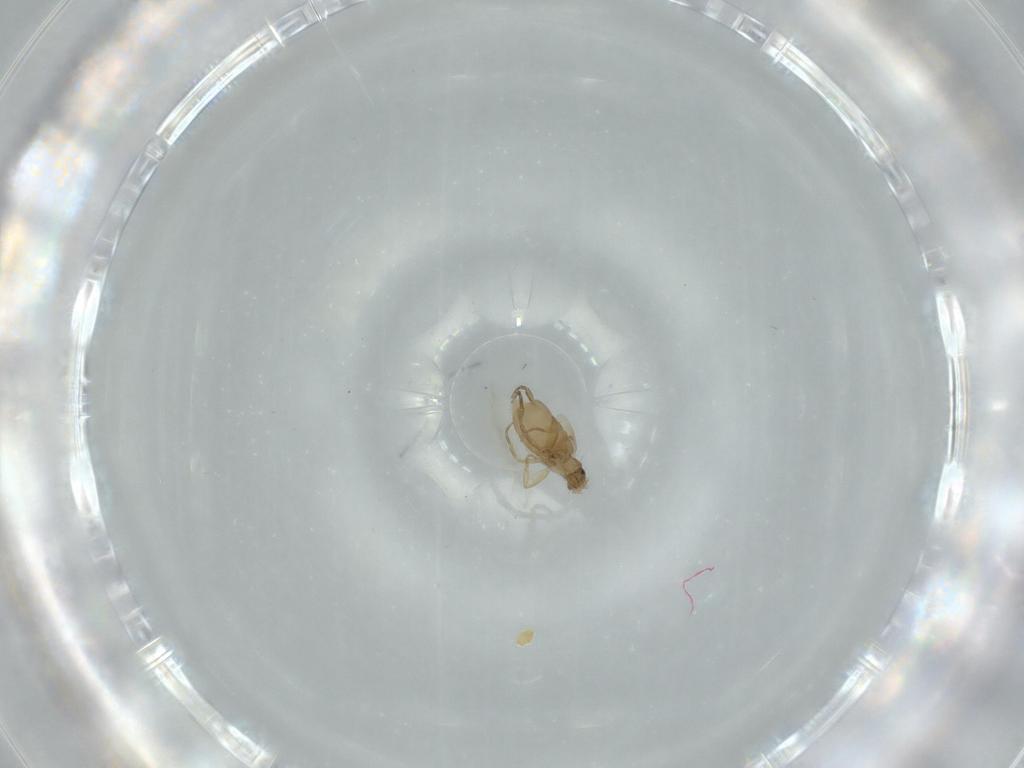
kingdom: Animalia
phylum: Arthropoda
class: Insecta
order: Diptera
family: Phoridae
